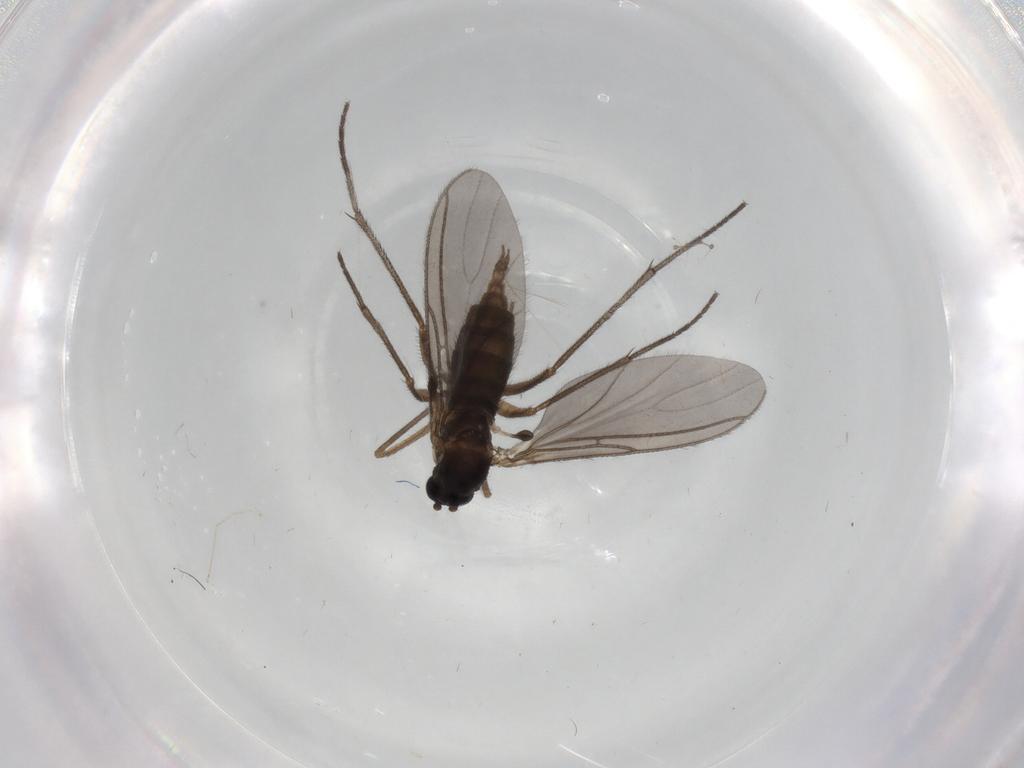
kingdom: Animalia
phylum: Arthropoda
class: Insecta
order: Diptera
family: Sciaridae
